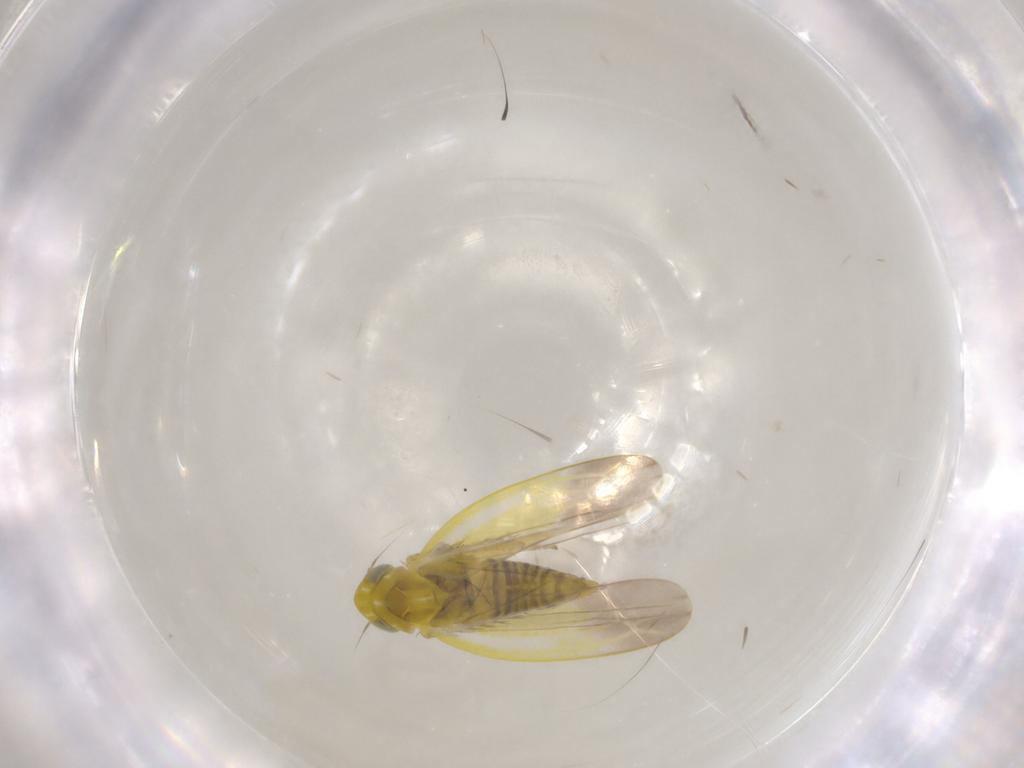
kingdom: Animalia
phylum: Arthropoda
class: Insecta
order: Hemiptera
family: Cicadellidae
